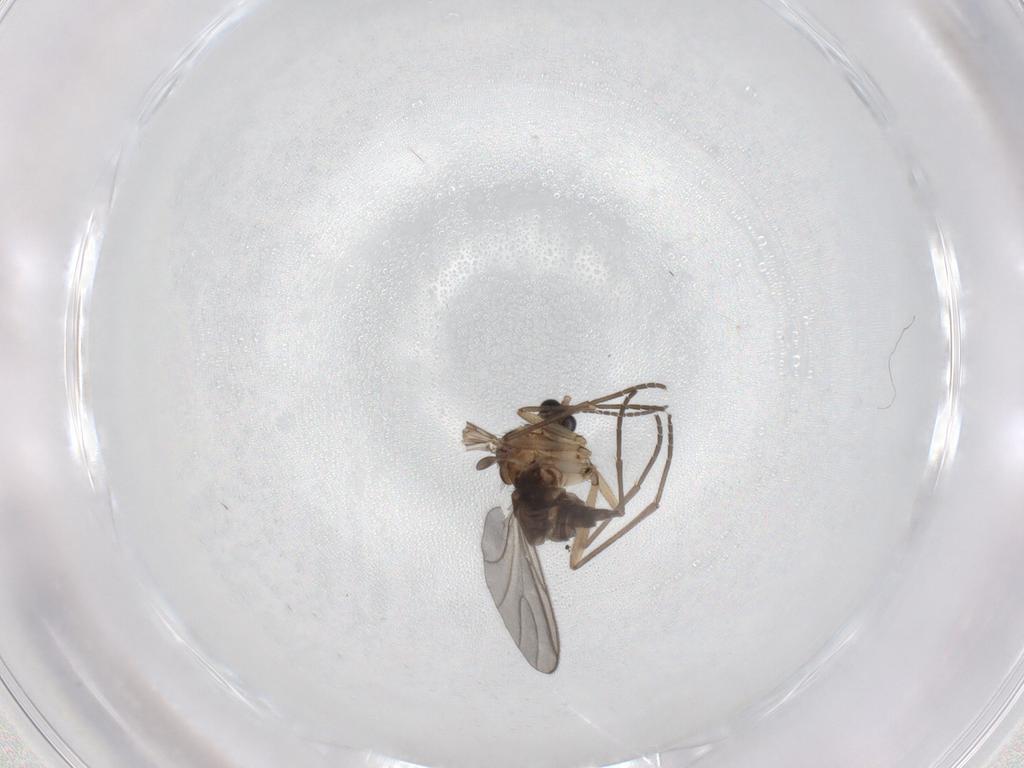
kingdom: Animalia
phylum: Arthropoda
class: Insecta
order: Diptera
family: Sciaridae
